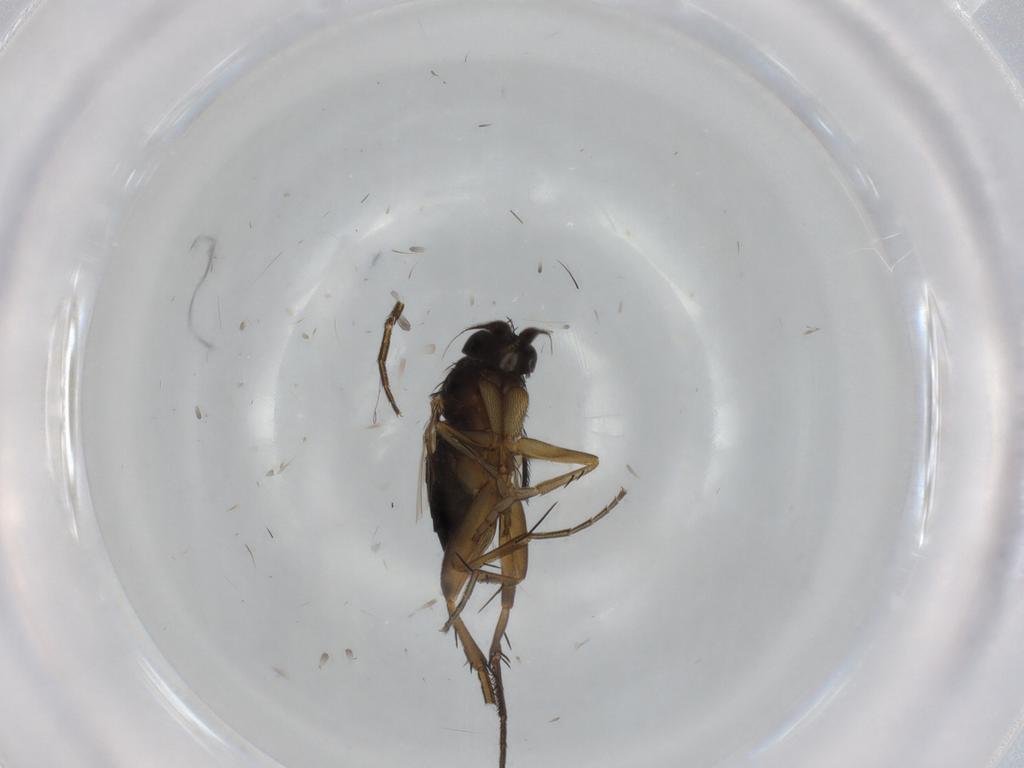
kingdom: Animalia
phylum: Arthropoda
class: Insecta
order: Diptera
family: Phoridae
